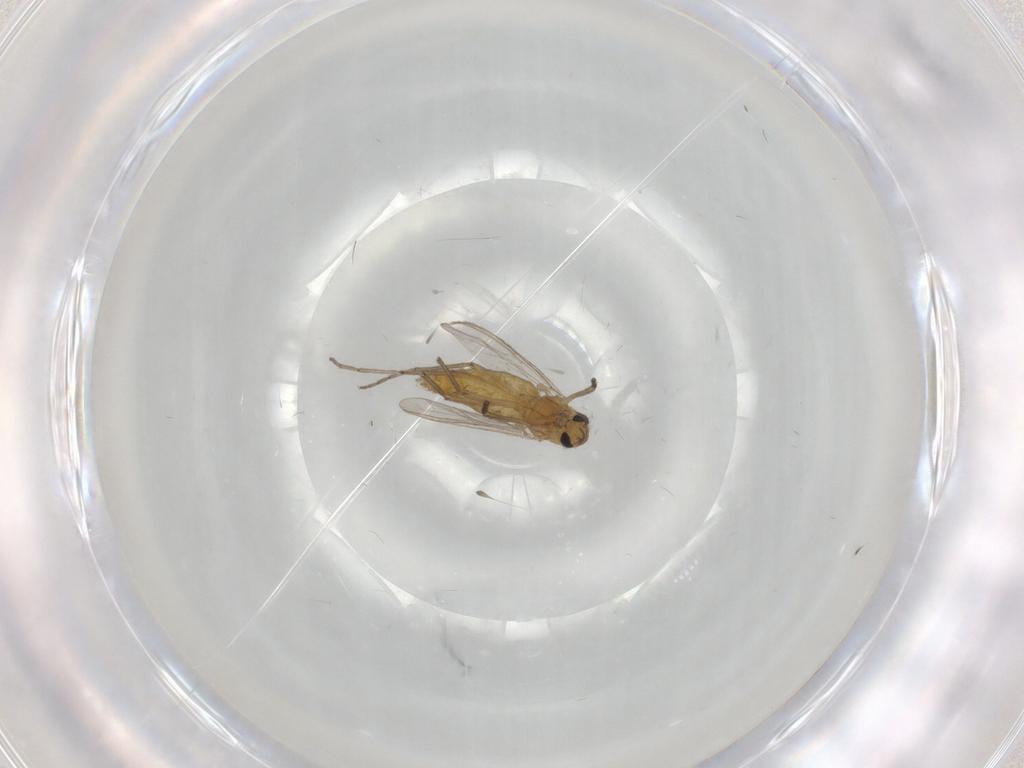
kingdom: Animalia
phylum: Arthropoda
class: Insecta
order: Diptera
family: Chironomidae
